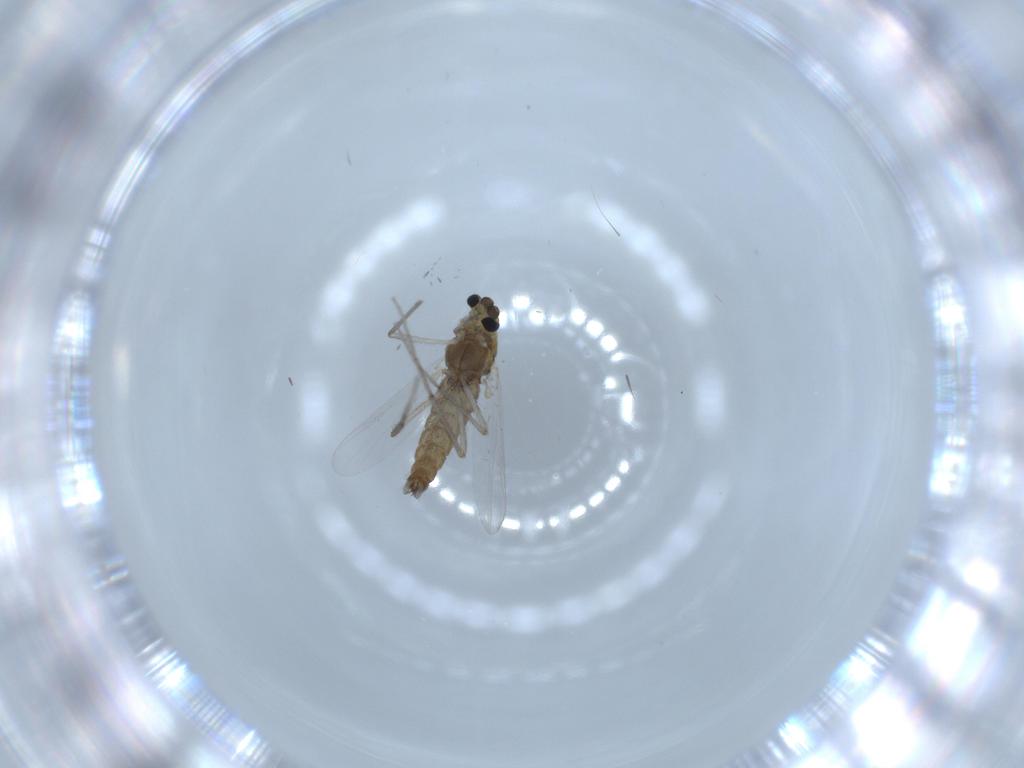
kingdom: Animalia
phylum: Arthropoda
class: Insecta
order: Diptera
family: Chironomidae
